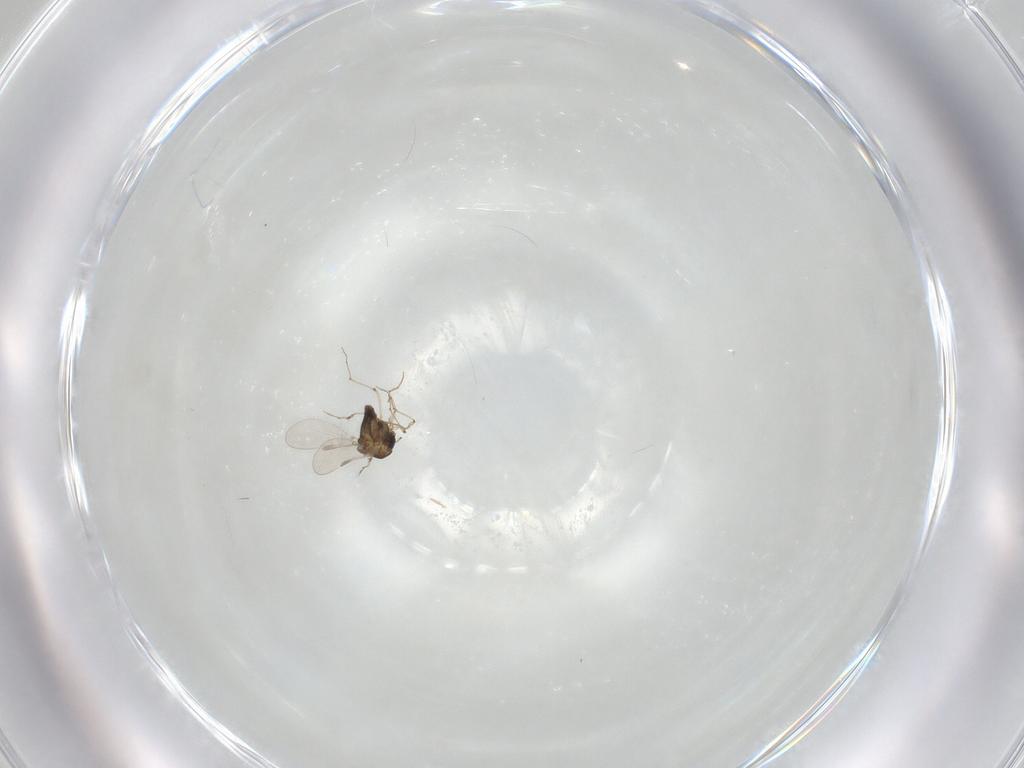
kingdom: Animalia
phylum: Arthropoda
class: Insecta
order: Diptera
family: Chironomidae
